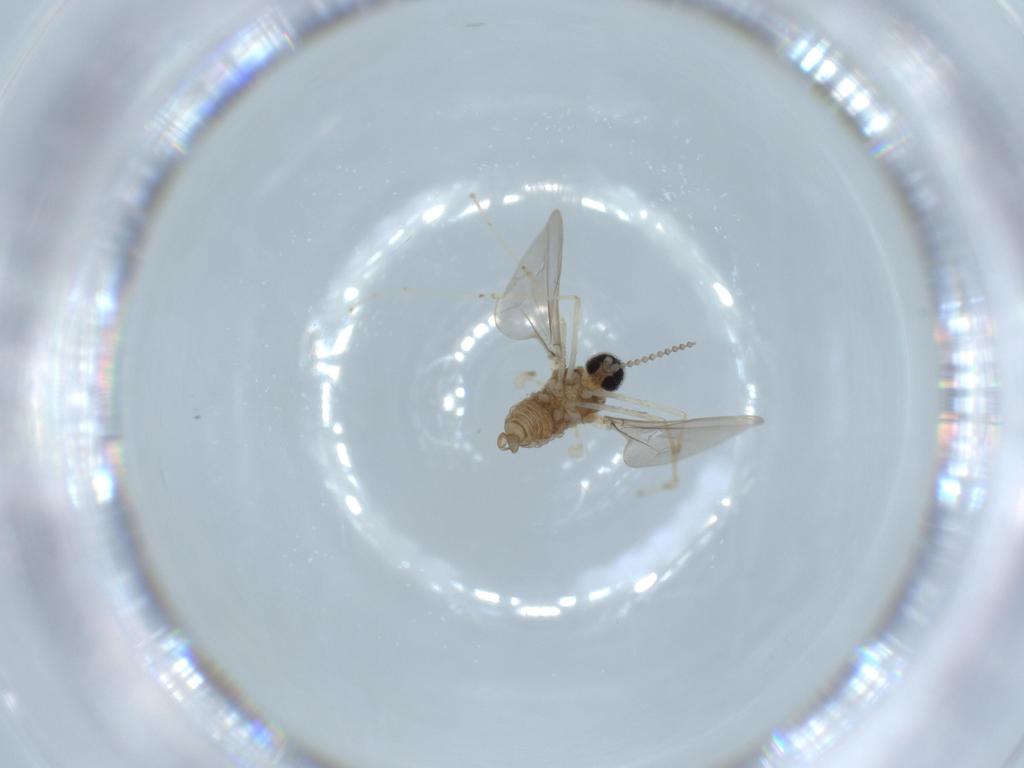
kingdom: Animalia
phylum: Arthropoda
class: Insecta
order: Diptera
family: Cecidomyiidae
